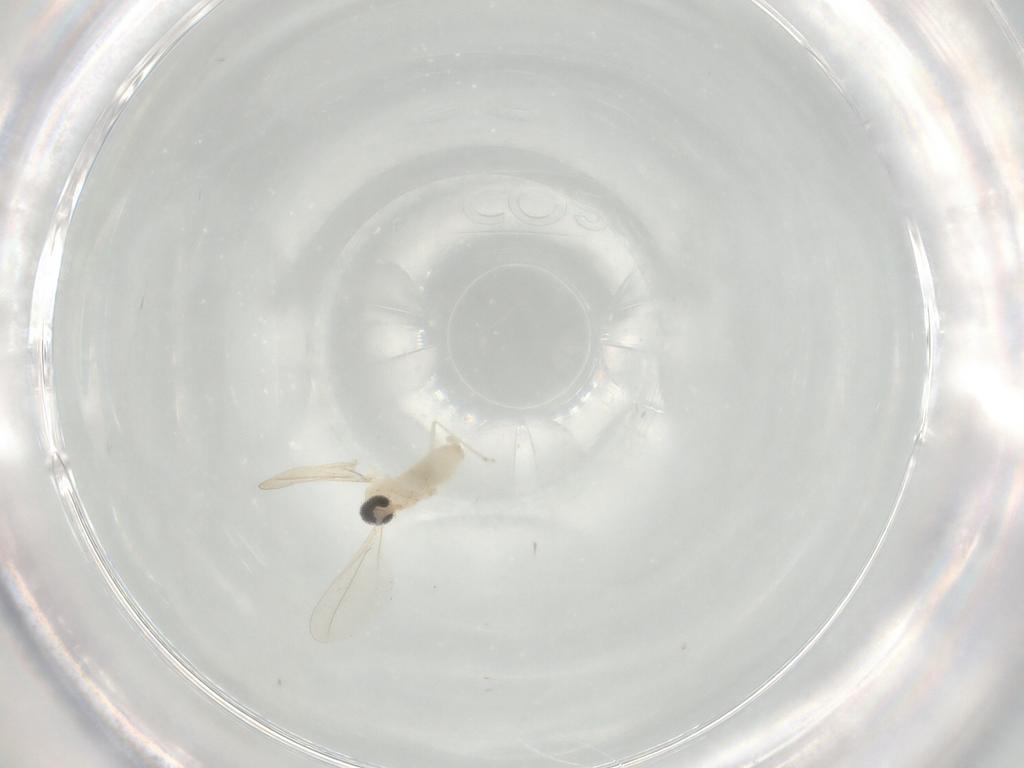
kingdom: Animalia
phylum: Arthropoda
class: Insecta
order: Diptera
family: Cecidomyiidae
